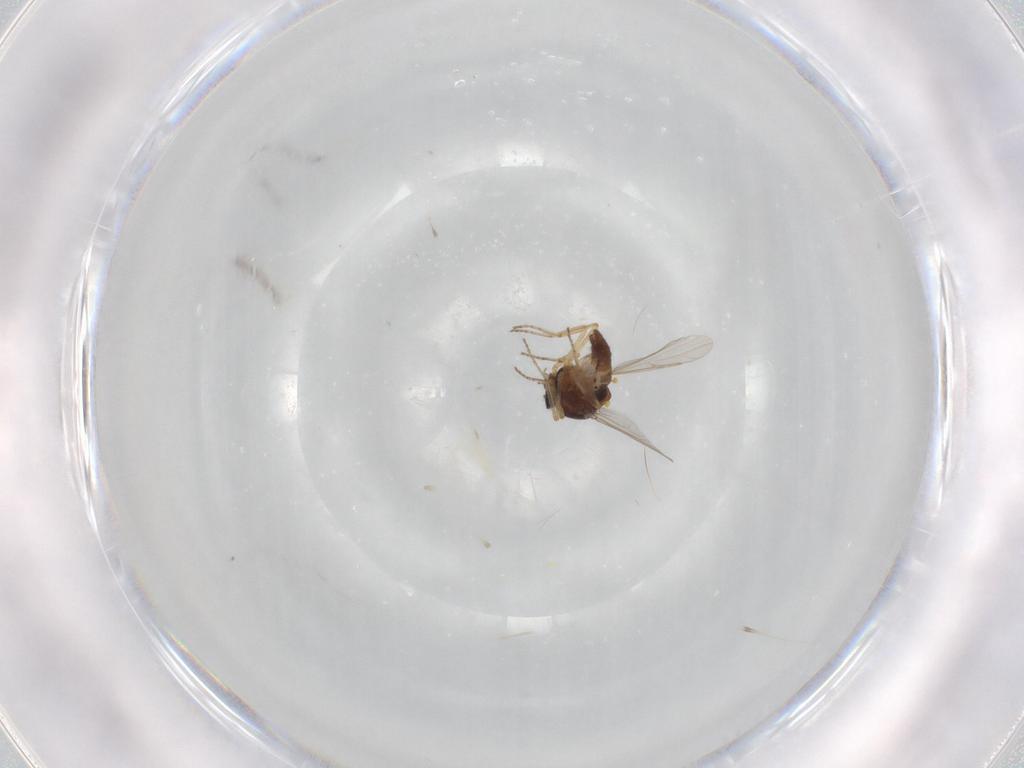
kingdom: Animalia
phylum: Arthropoda
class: Insecta
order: Diptera
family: Ceratopogonidae
